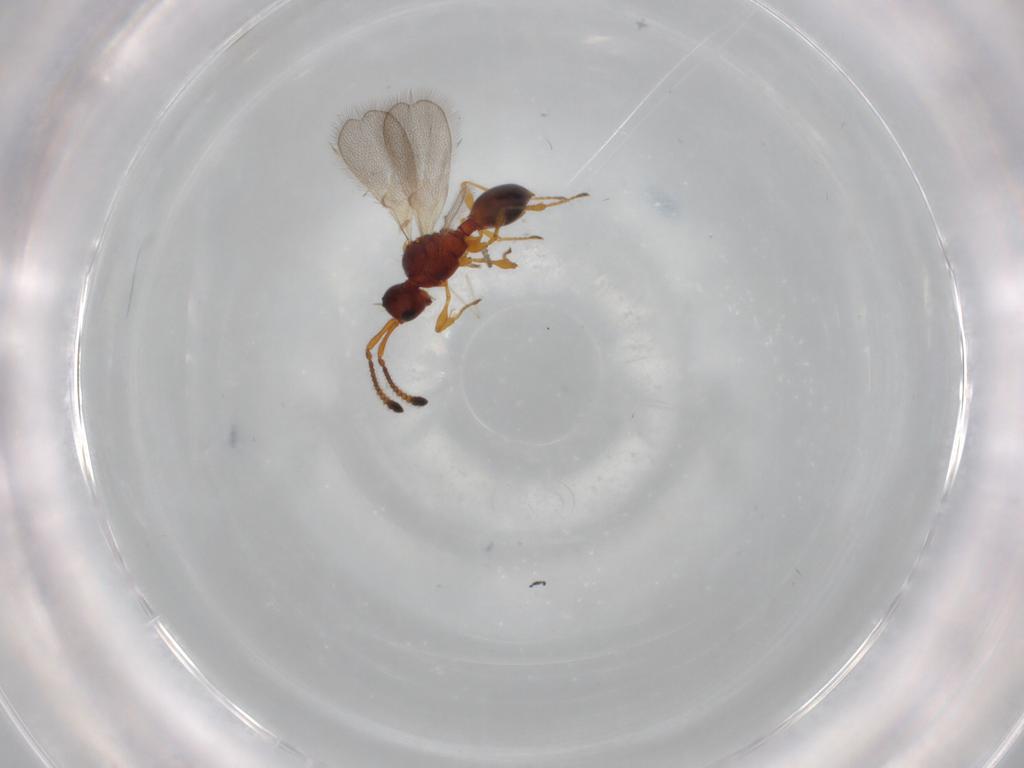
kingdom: Animalia
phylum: Arthropoda
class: Insecta
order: Hymenoptera
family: Diapriidae
